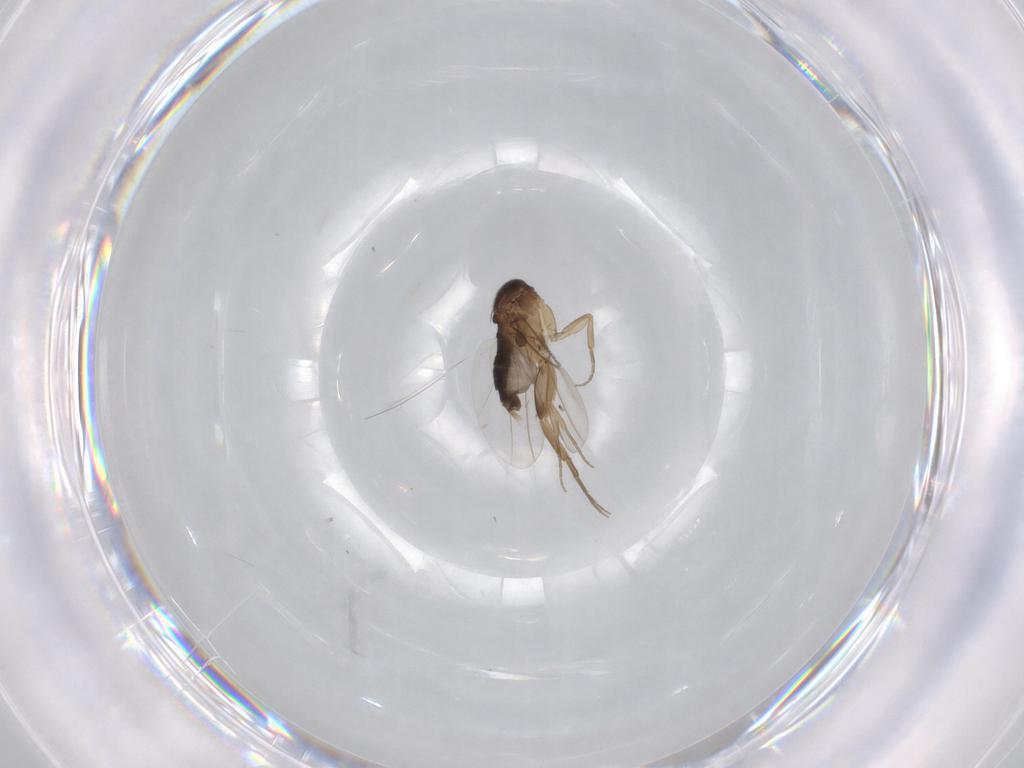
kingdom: Animalia
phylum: Arthropoda
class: Insecta
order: Diptera
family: Phoridae
